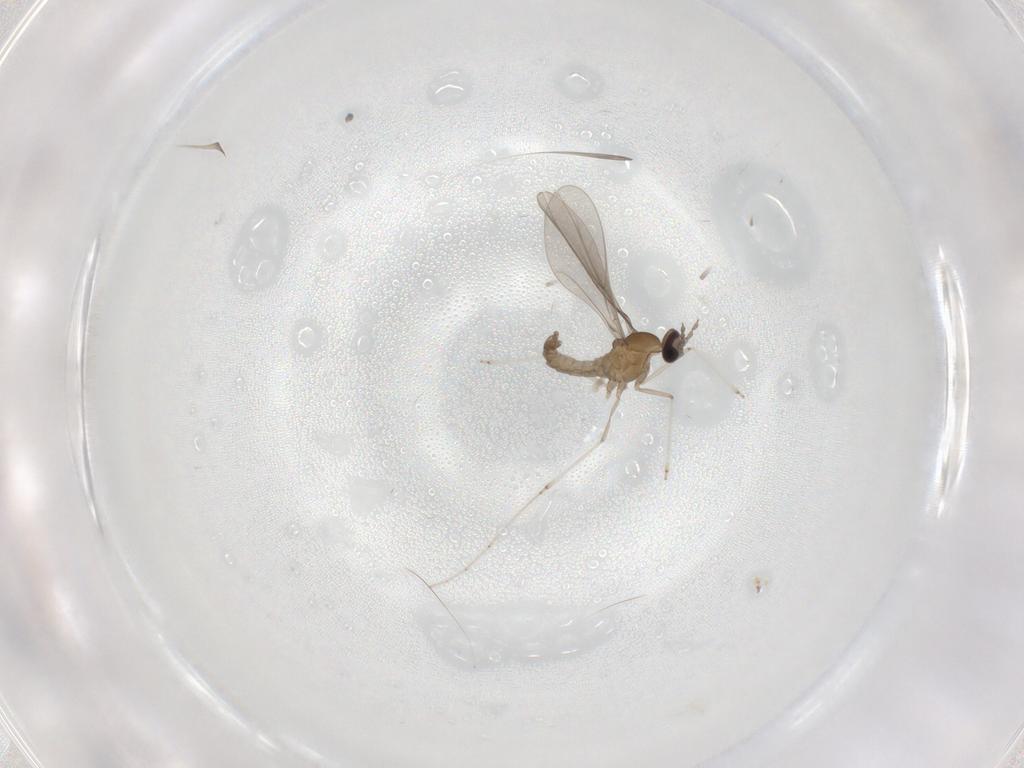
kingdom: Animalia
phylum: Arthropoda
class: Insecta
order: Diptera
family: Cecidomyiidae
